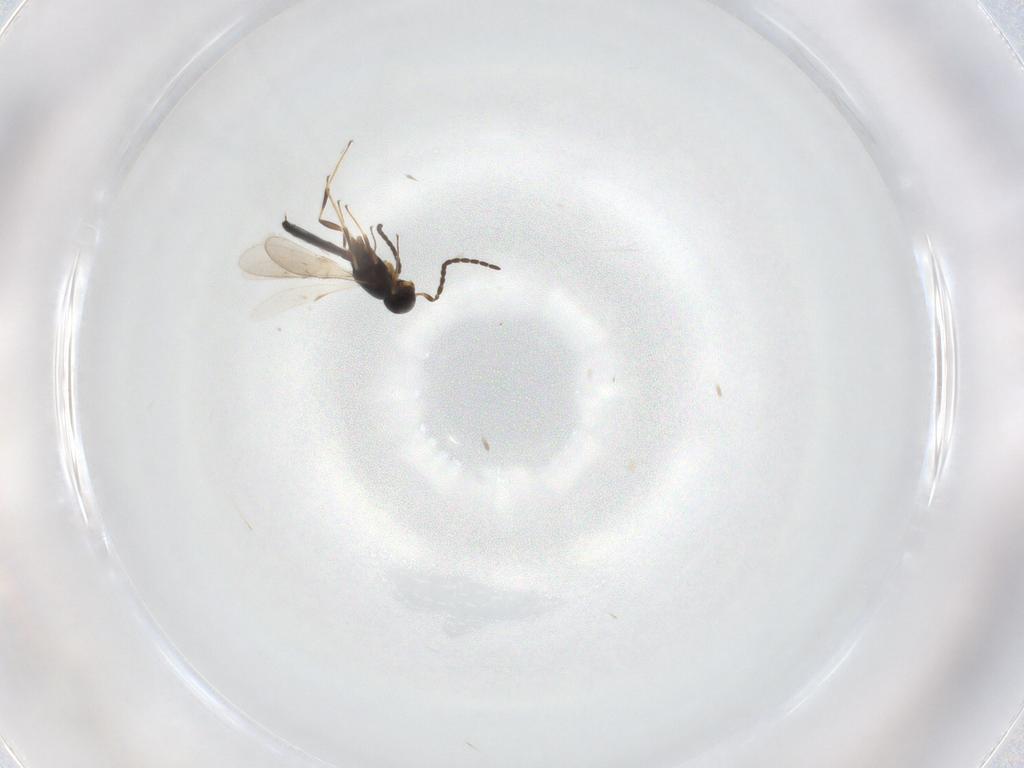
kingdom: Animalia
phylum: Arthropoda
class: Insecta
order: Hymenoptera
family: Scelionidae
